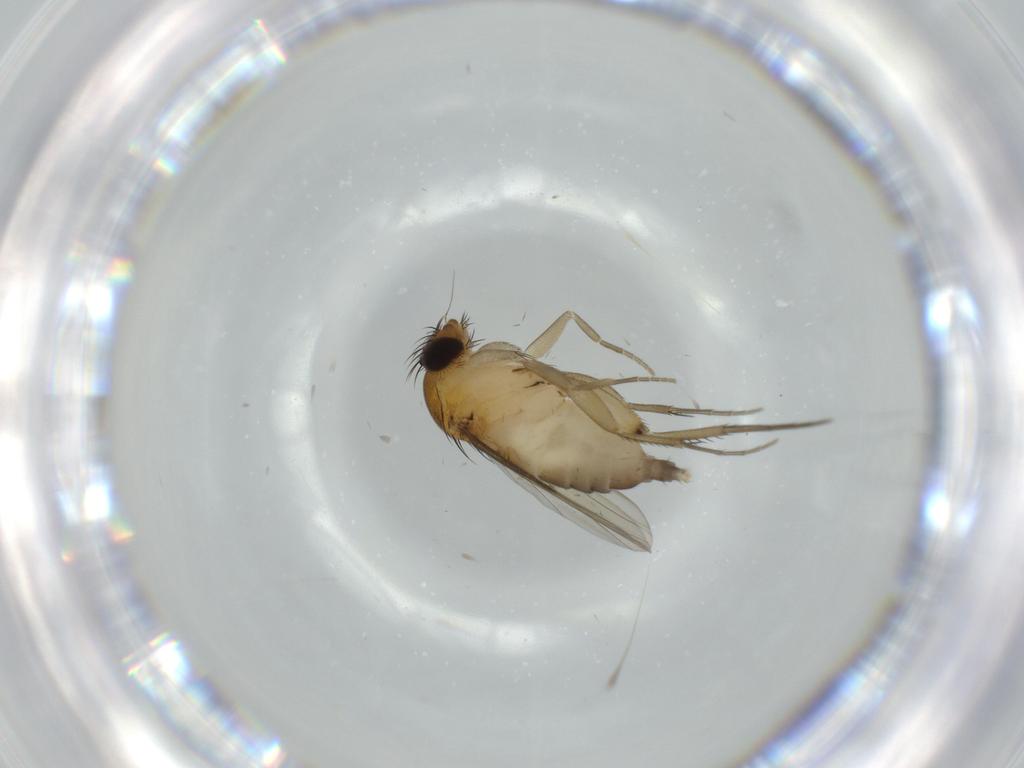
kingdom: Animalia
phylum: Arthropoda
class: Insecta
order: Diptera
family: Phoridae
